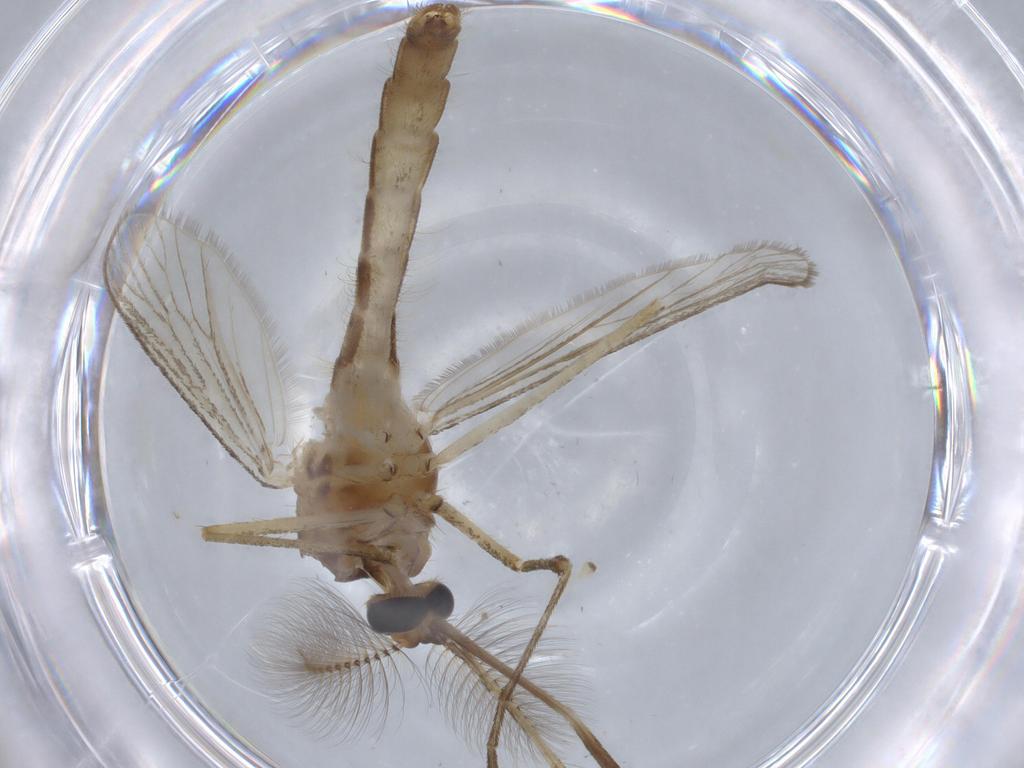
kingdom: Animalia
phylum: Arthropoda
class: Insecta
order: Diptera
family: Culicidae
